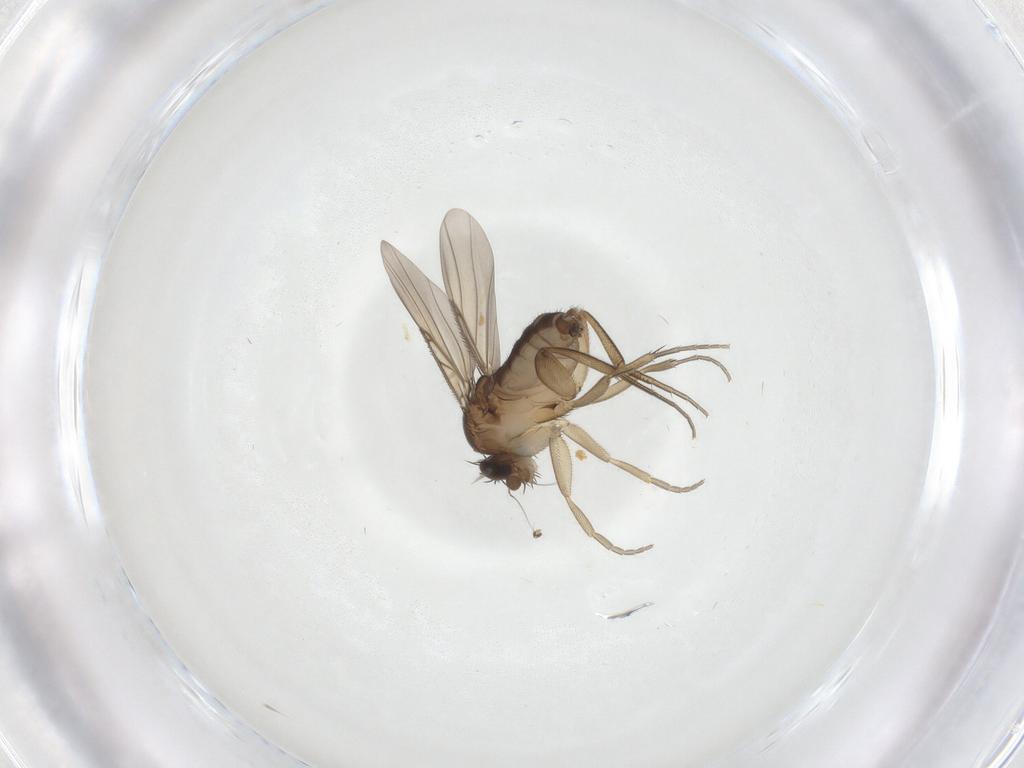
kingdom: Animalia
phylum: Arthropoda
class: Insecta
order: Diptera
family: Phoridae
